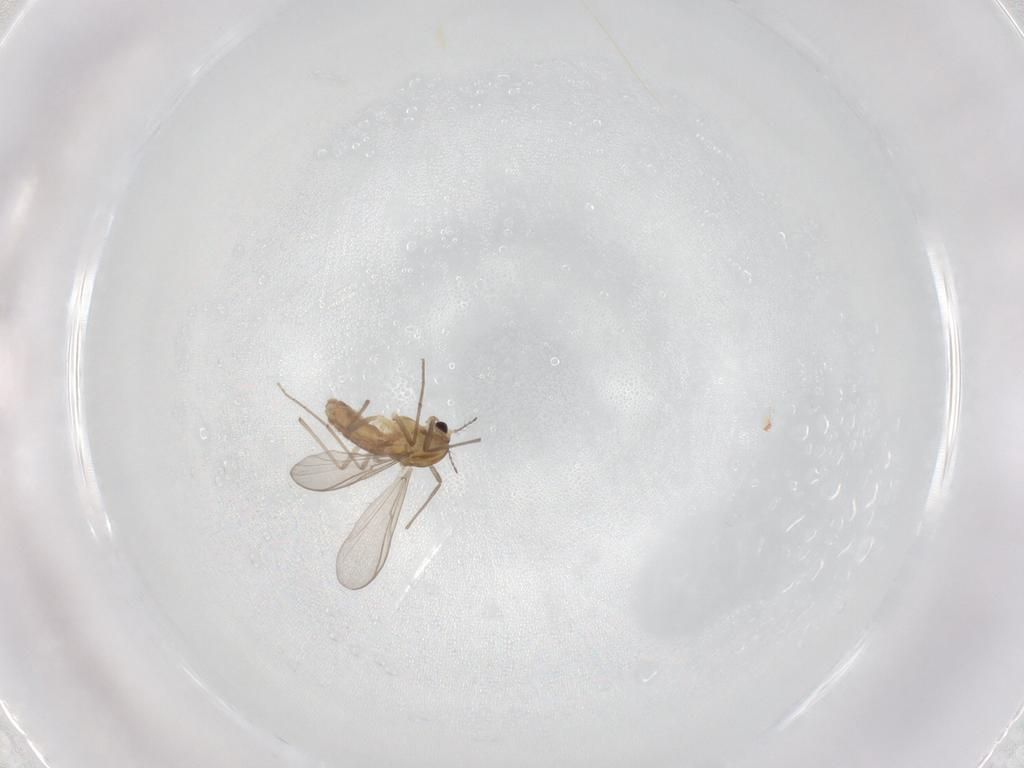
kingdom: Animalia
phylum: Arthropoda
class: Insecta
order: Diptera
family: Chironomidae
